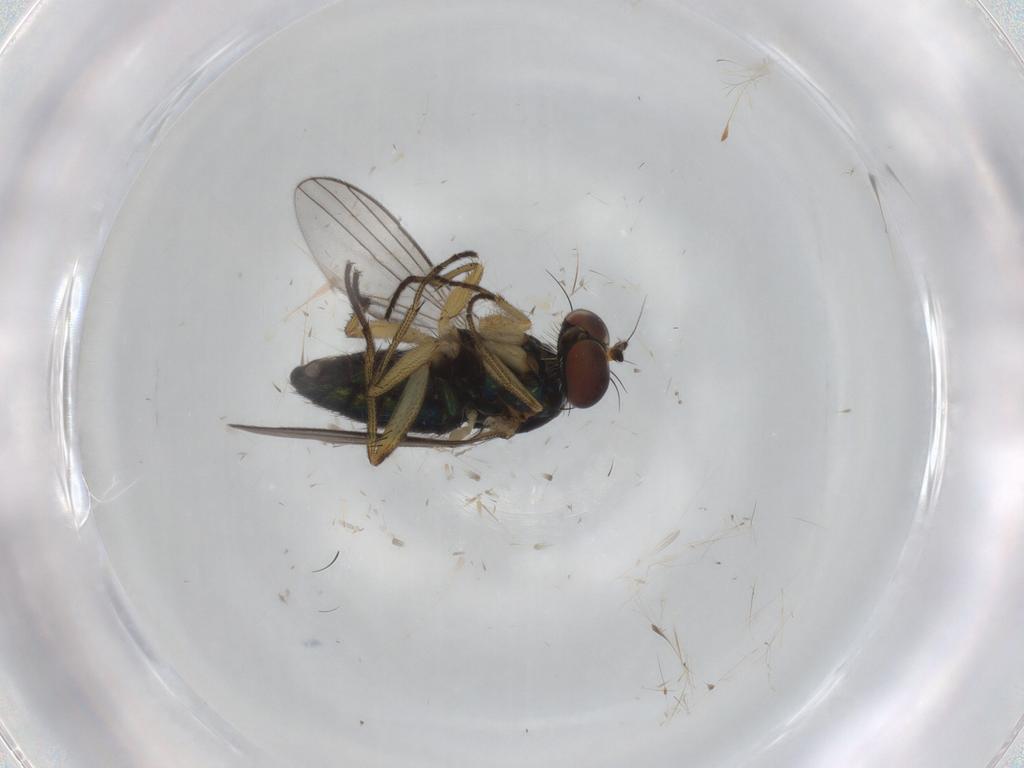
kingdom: Animalia
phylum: Arthropoda
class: Insecta
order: Diptera
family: Dolichopodidae
